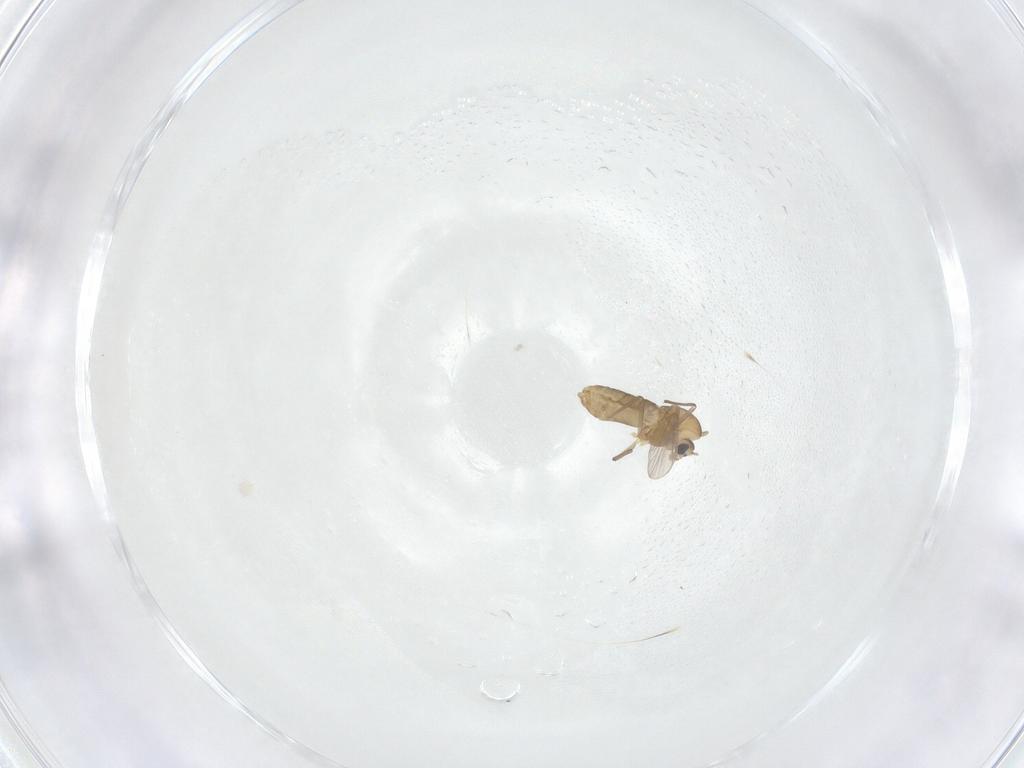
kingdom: Animalia
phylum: Arthropoda
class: Insecta
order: Diptera
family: Chironomidae
